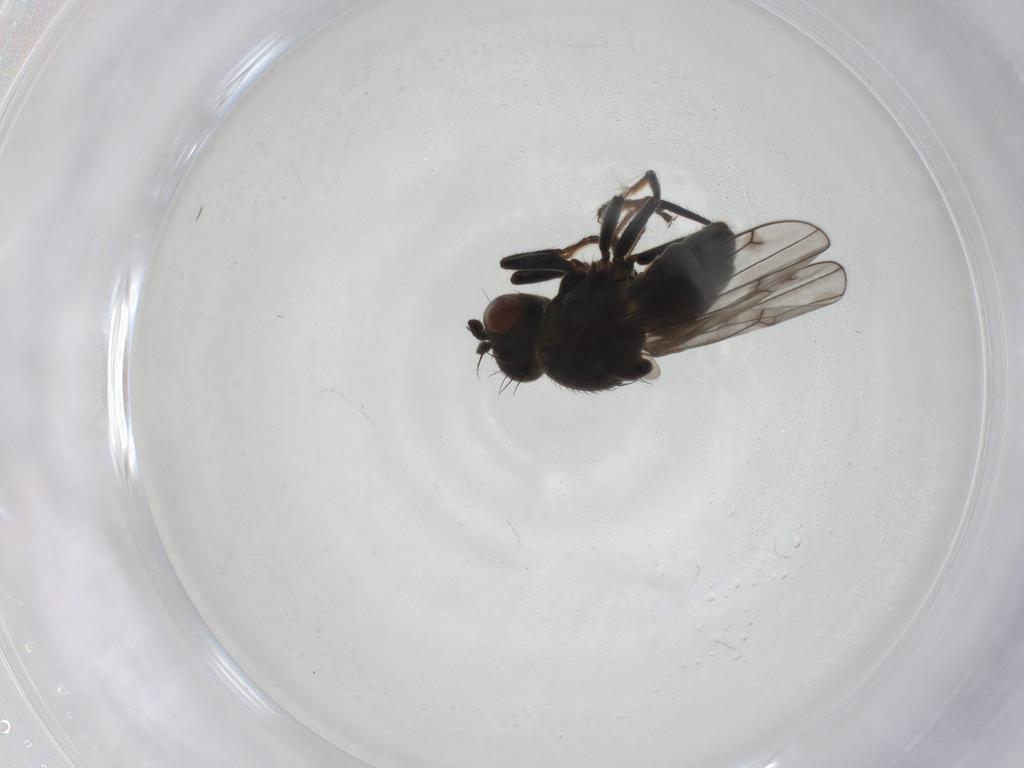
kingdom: Animalia
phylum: Arthropoda
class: Insecta
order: Diptera
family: Ephydridae
